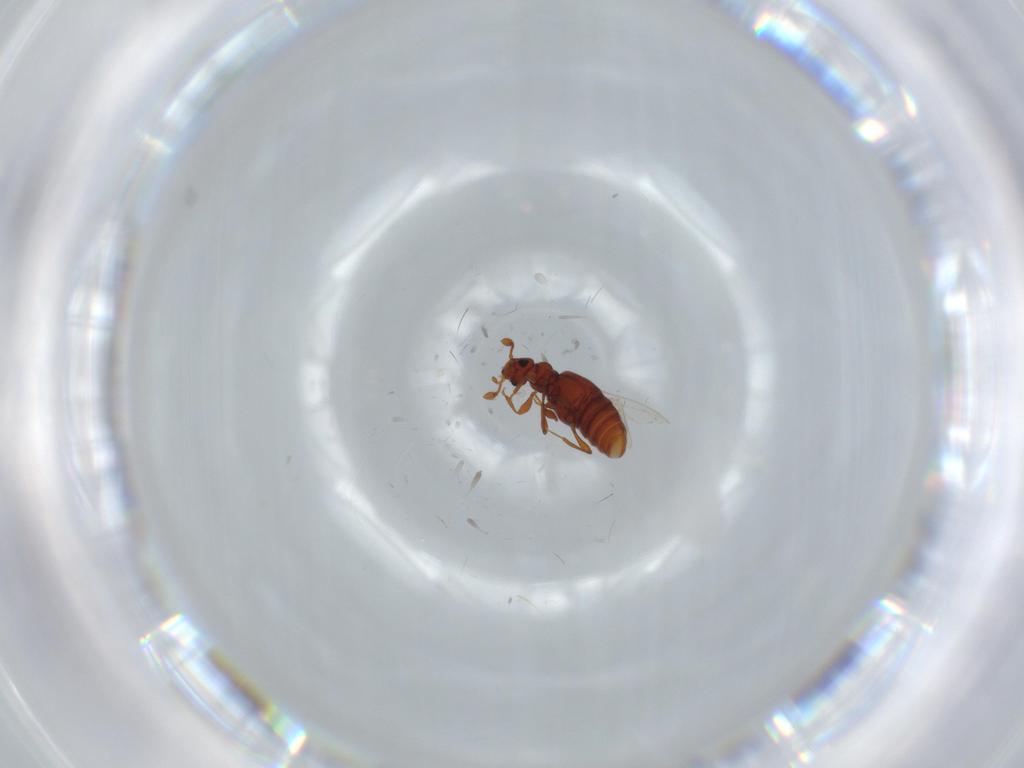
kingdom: Animalia
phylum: Arthropoda
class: Insecta
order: Coleoptera
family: Staphylinidae
